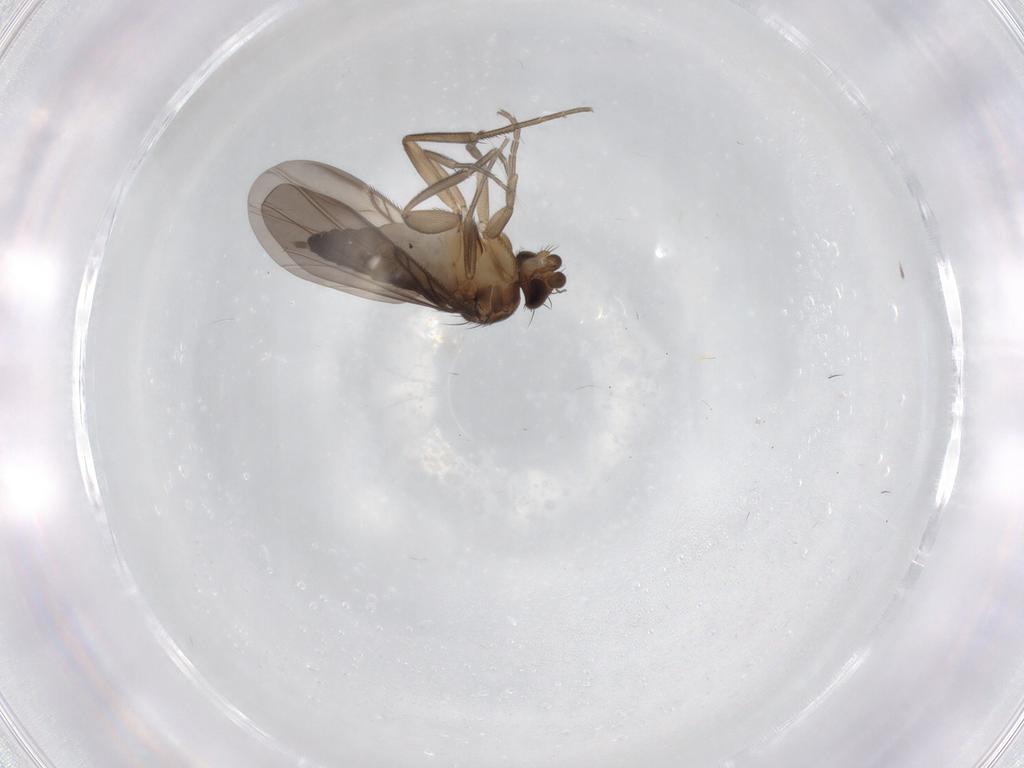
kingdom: Animalia
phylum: Arthropoda
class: Insecta
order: Diptera
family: Phoridae
